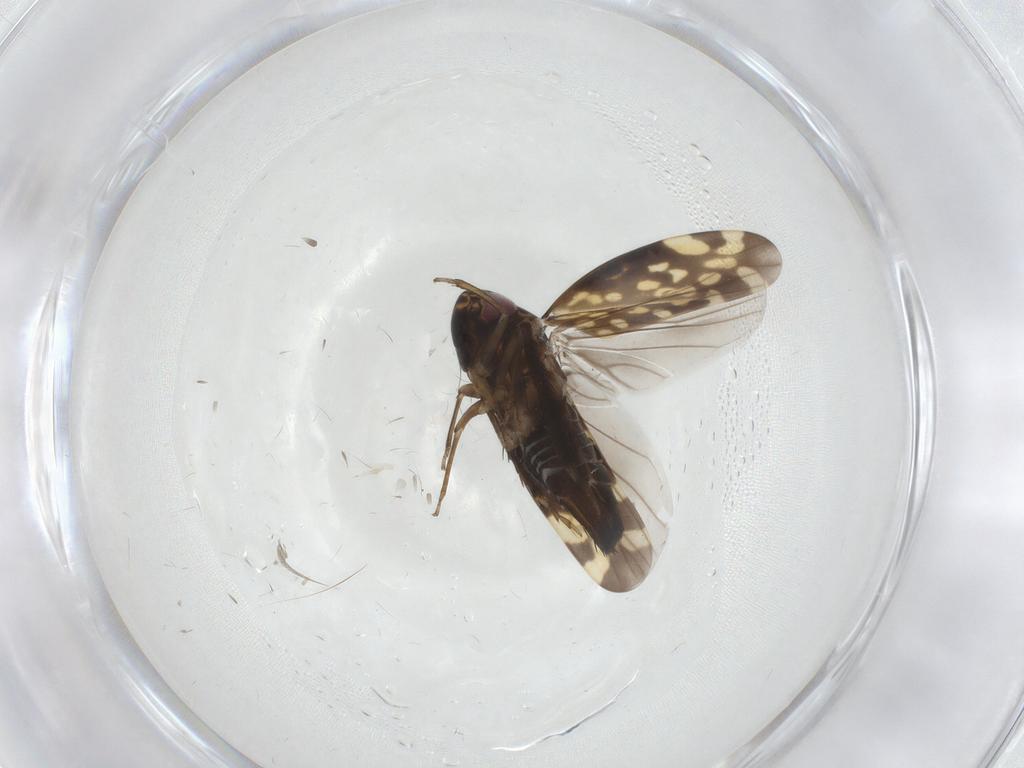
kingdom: Animalia
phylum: Arthropoda
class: Insecta
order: Hemiptera
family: Cicadellidae
